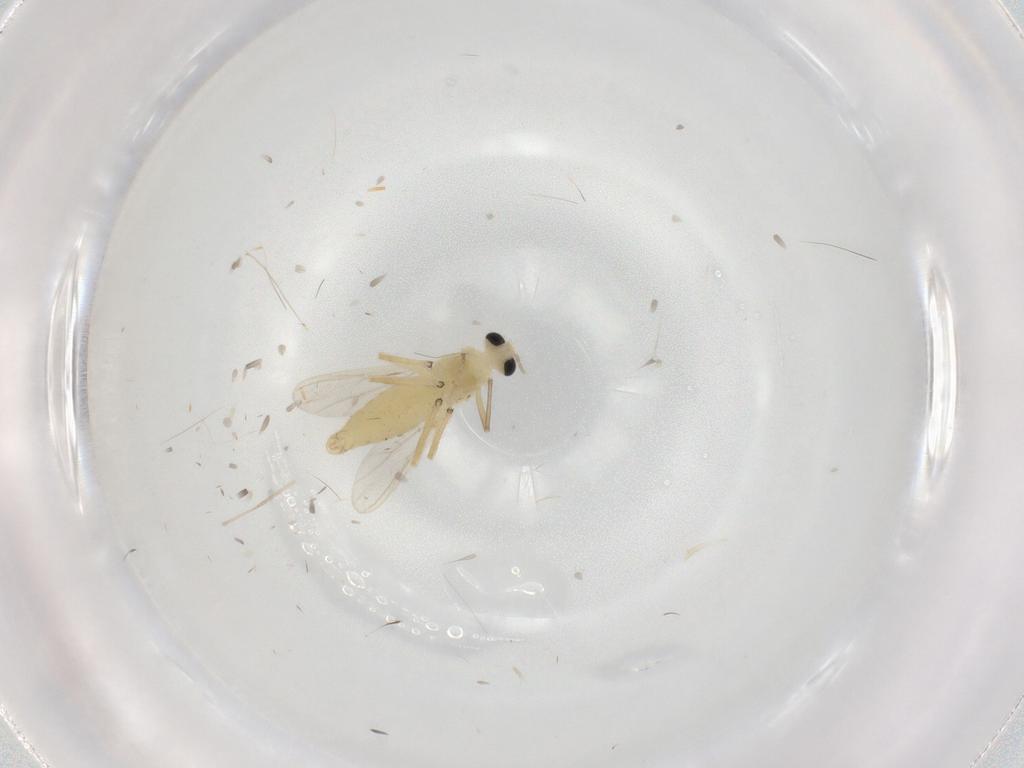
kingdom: Animalia
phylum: Arthropoda
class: Insecta
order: Diptera
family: Chironomidae
